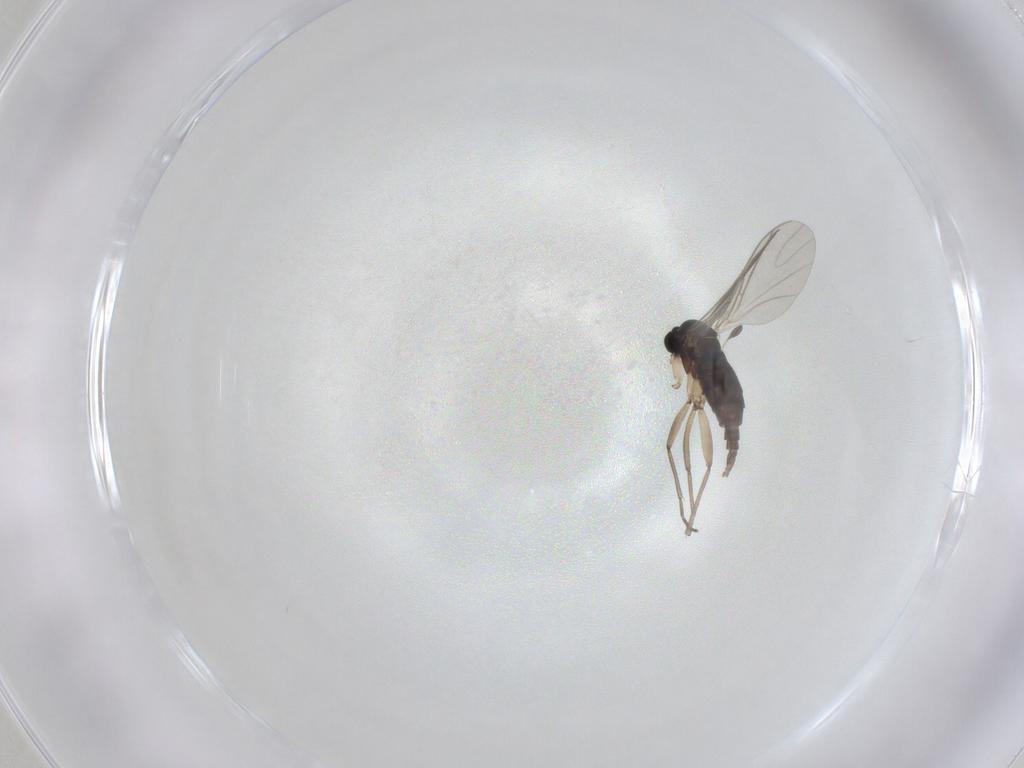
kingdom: Animalia
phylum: Arthropoda
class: Insecta
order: Diptera
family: Sciaridae
